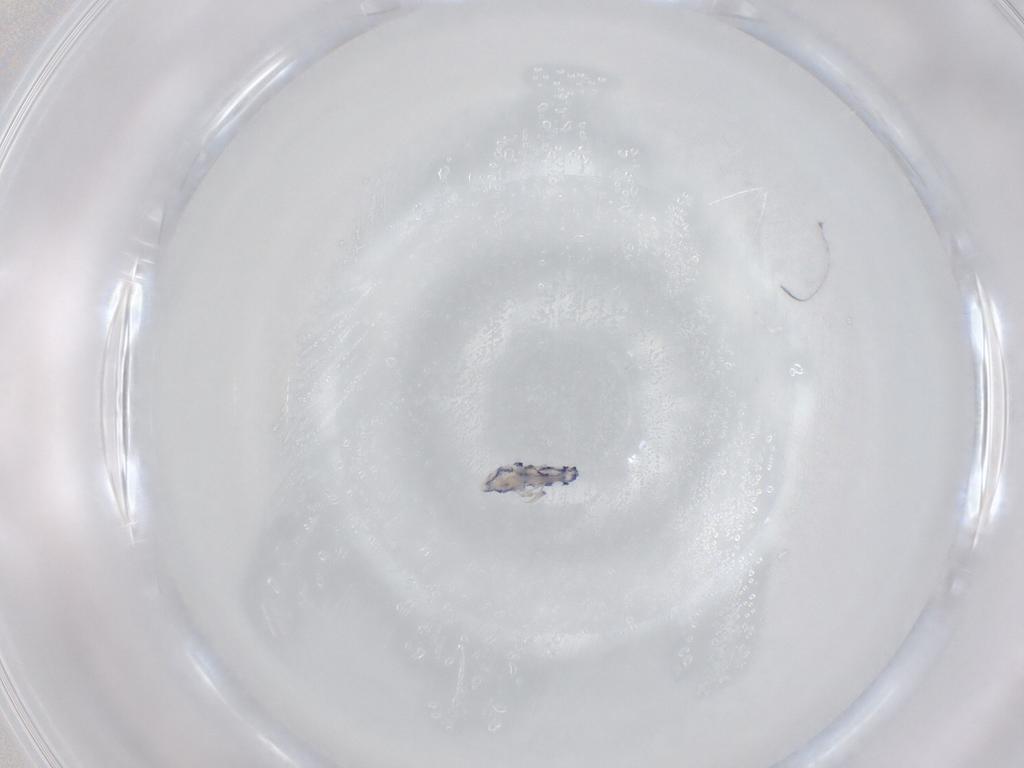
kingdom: Animalia
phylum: Arthropoda
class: Collembola
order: Entomobryomorpha
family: Entomobryidae
